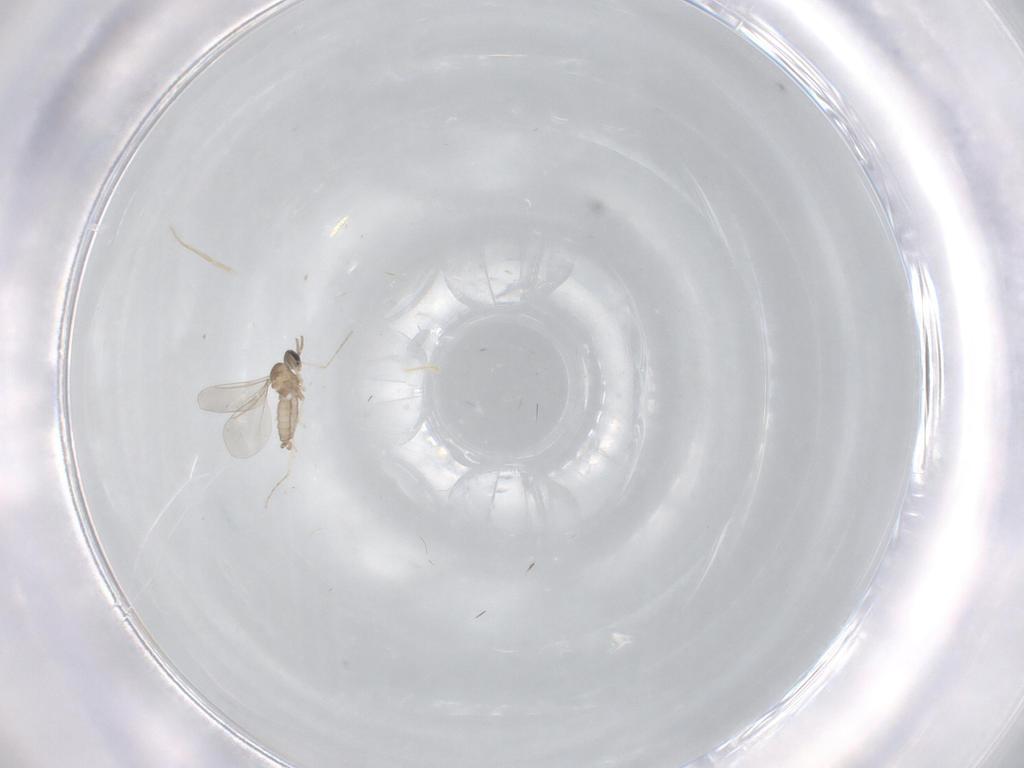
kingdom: Animalia
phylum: Arthropoda
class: Insecta
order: Diptera
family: Phoridae
